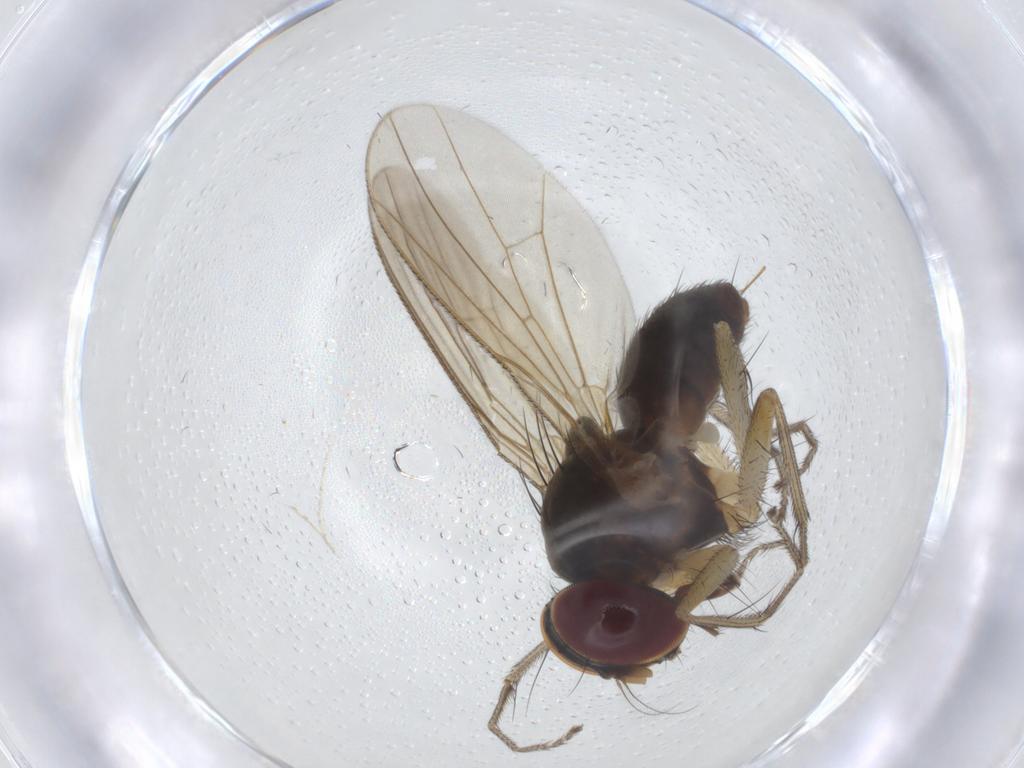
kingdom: Animalia
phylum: Arthropoda
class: Insecta
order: Diptera
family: Anthomyiidae
